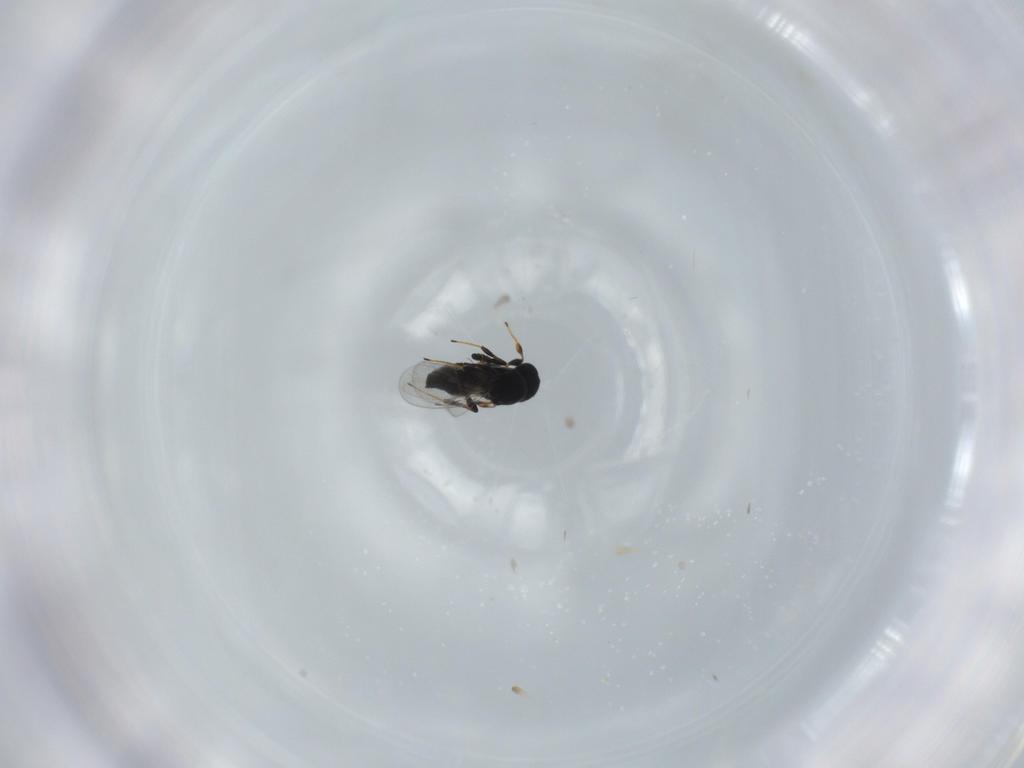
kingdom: Animalia
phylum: Arthropoda
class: Insecta
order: Hymenoptera
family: Platygastridae
